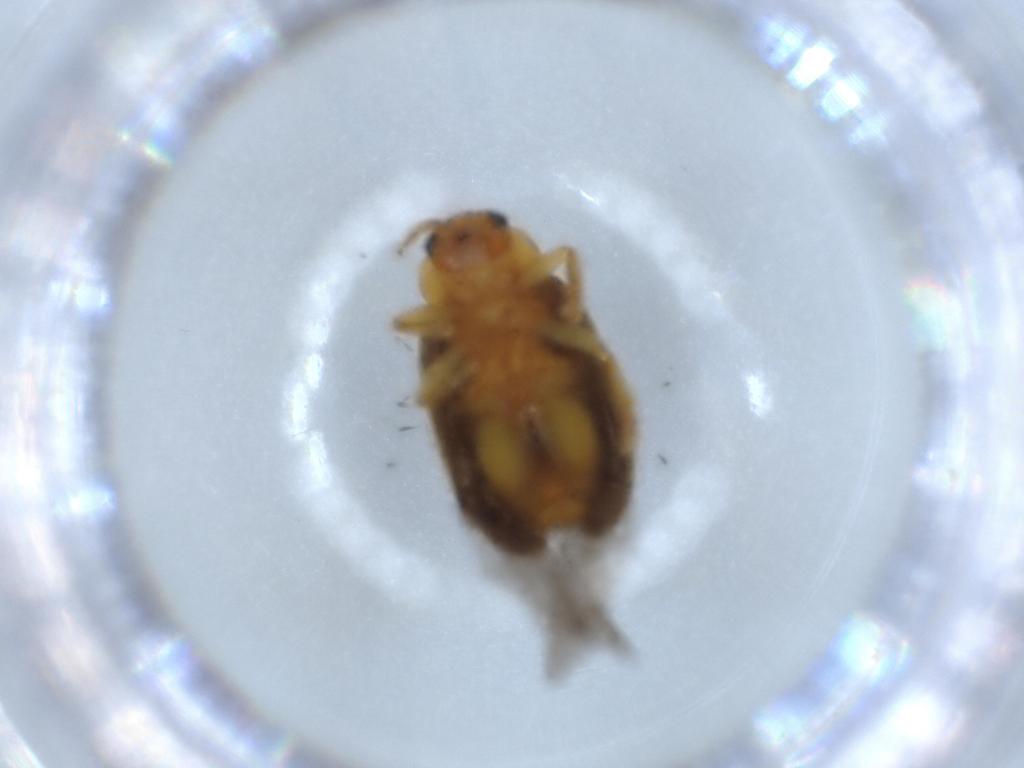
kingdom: Animalia
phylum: Arthropoda
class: Insecta
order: Coleoptera
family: Chrysomelidae
